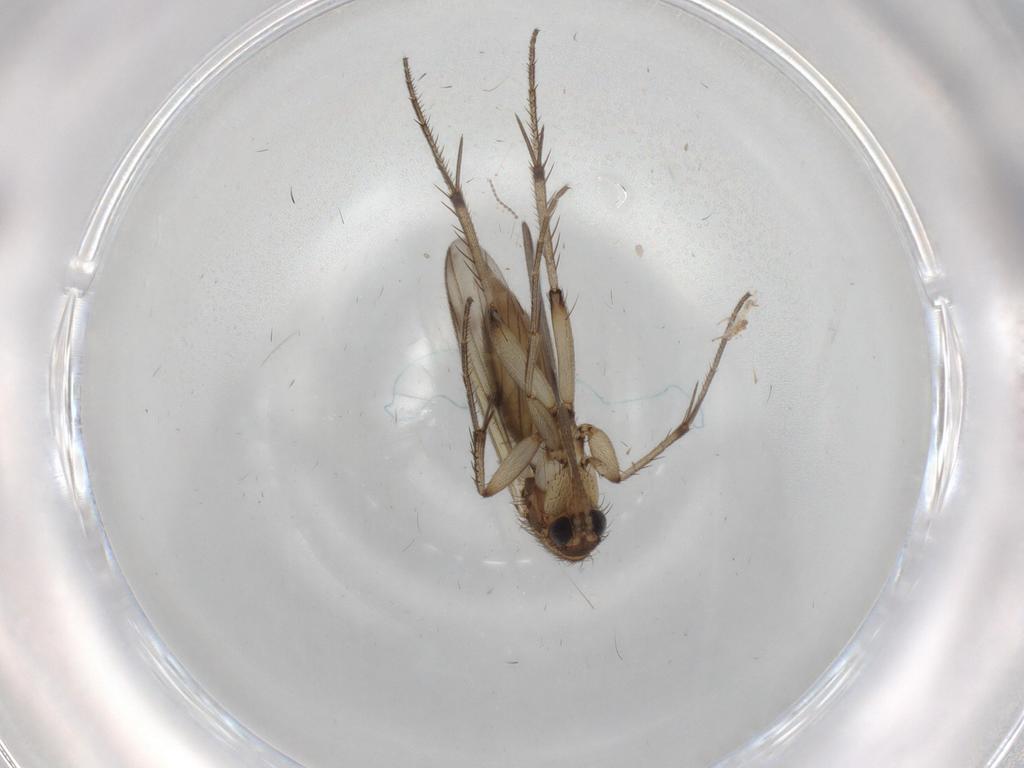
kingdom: Animalia
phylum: Arthropoda
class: Insecta
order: Diptera
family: Mycetophilidae
